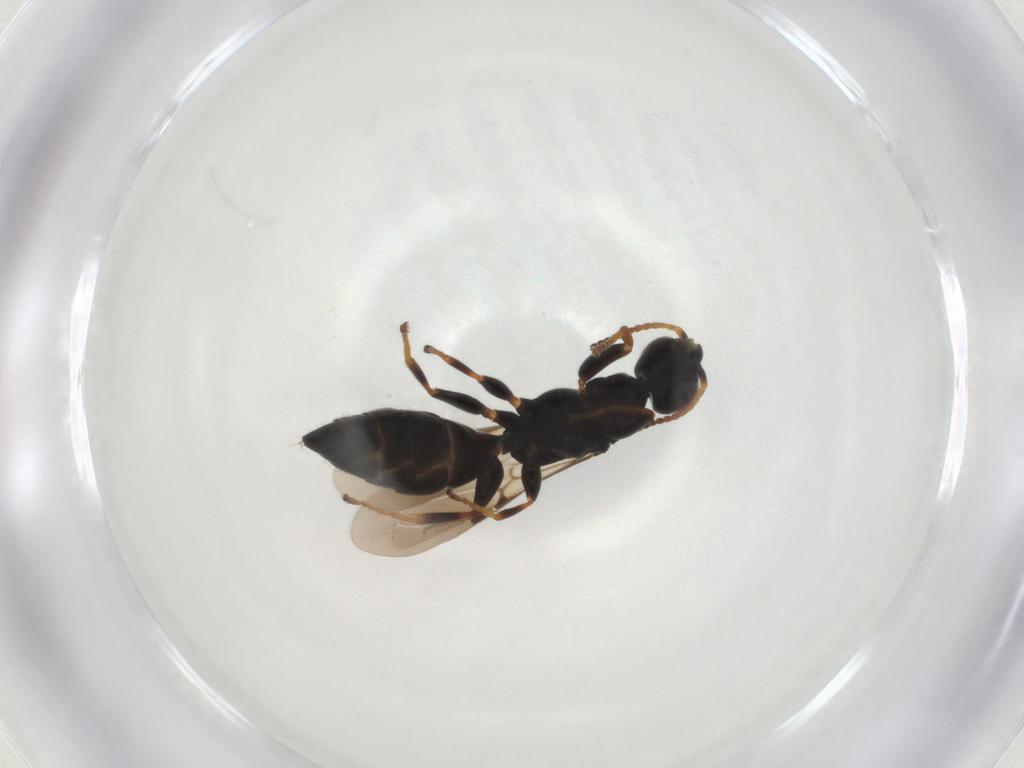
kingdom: Animalia
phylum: Arthropoda
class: Insecta
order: Hymenoptera
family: Bethylidae
